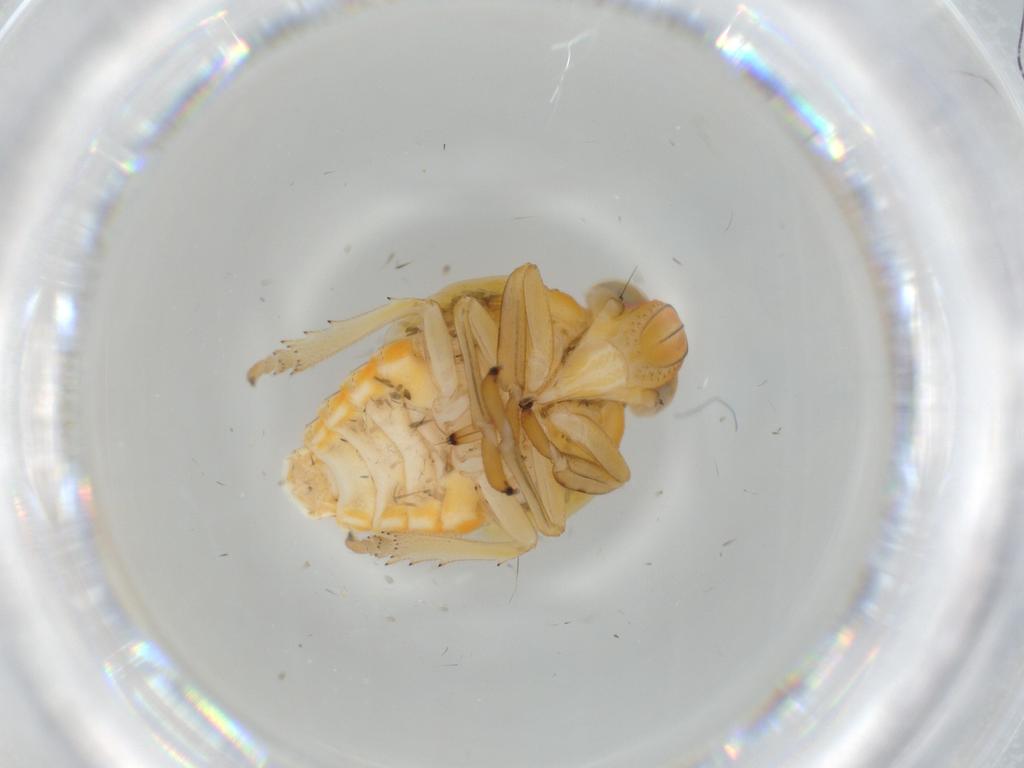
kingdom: Animalia
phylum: Arthropoda
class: Insecta
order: Hemiptera
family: Issidae
